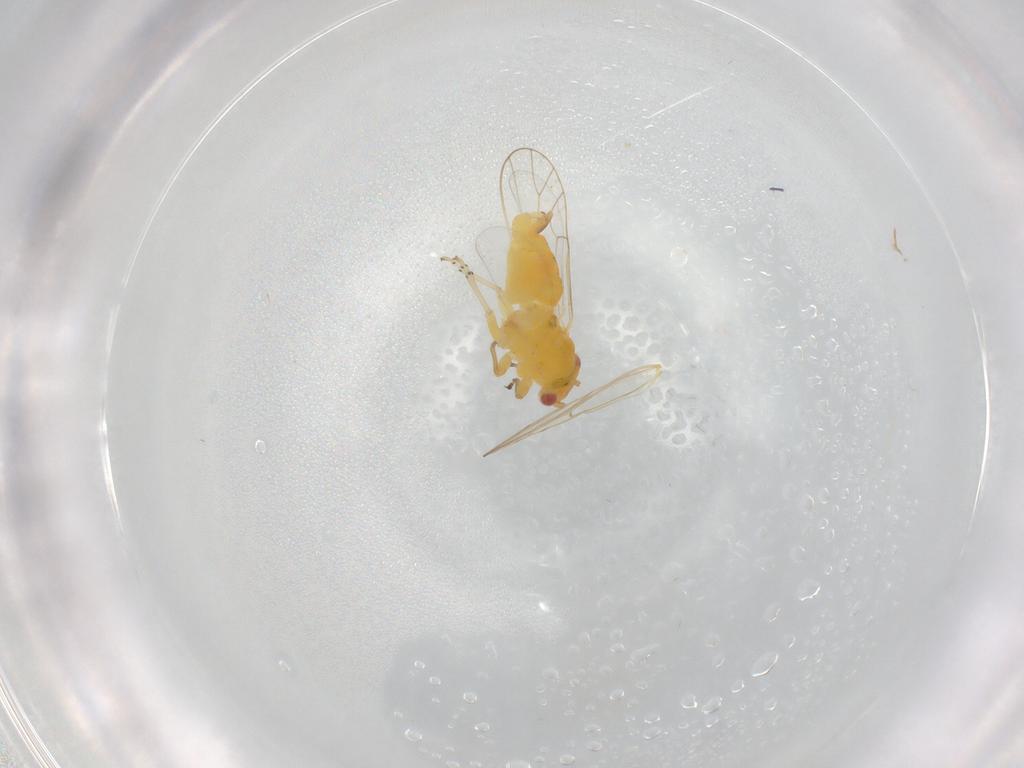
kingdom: Animalia
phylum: Arthropoda
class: Insecta
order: Hemiptera
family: Psyllidae
